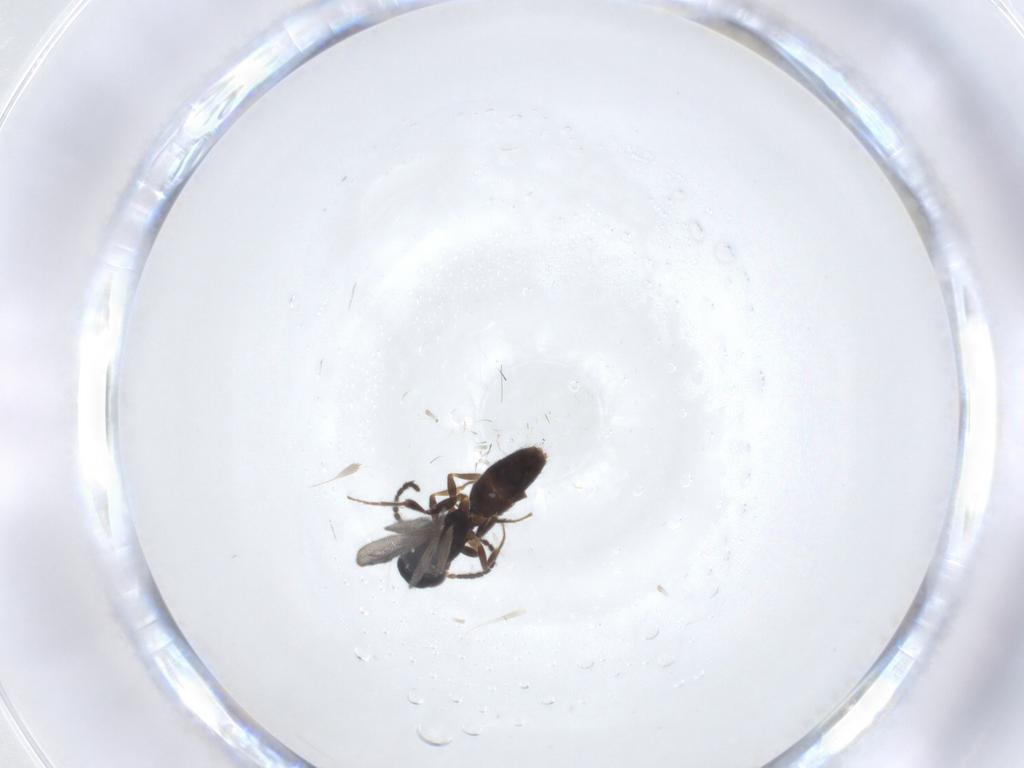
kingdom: Animalia
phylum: Arthropoda
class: Insecta
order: Hymenoptera
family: Bethylidae
